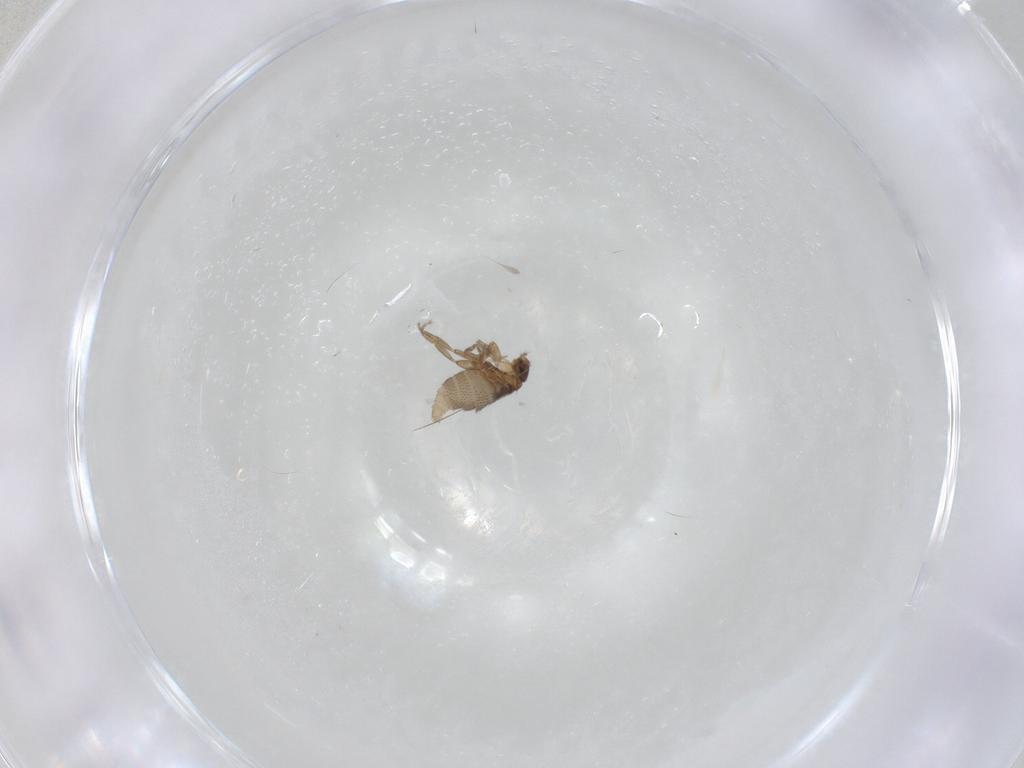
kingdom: Animalia
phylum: Arthropoda
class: Insecta
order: Diptera
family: Phoridae
